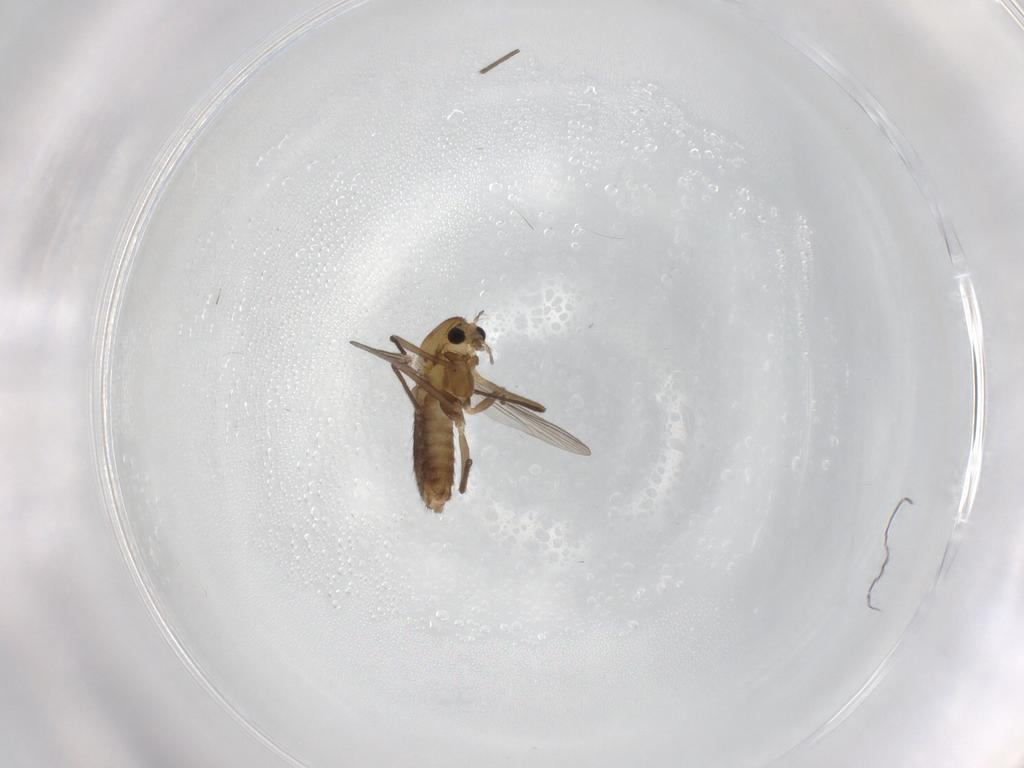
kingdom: Animalia
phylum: Arthropoda
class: Insecta
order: Diptera
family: Chironomidae
